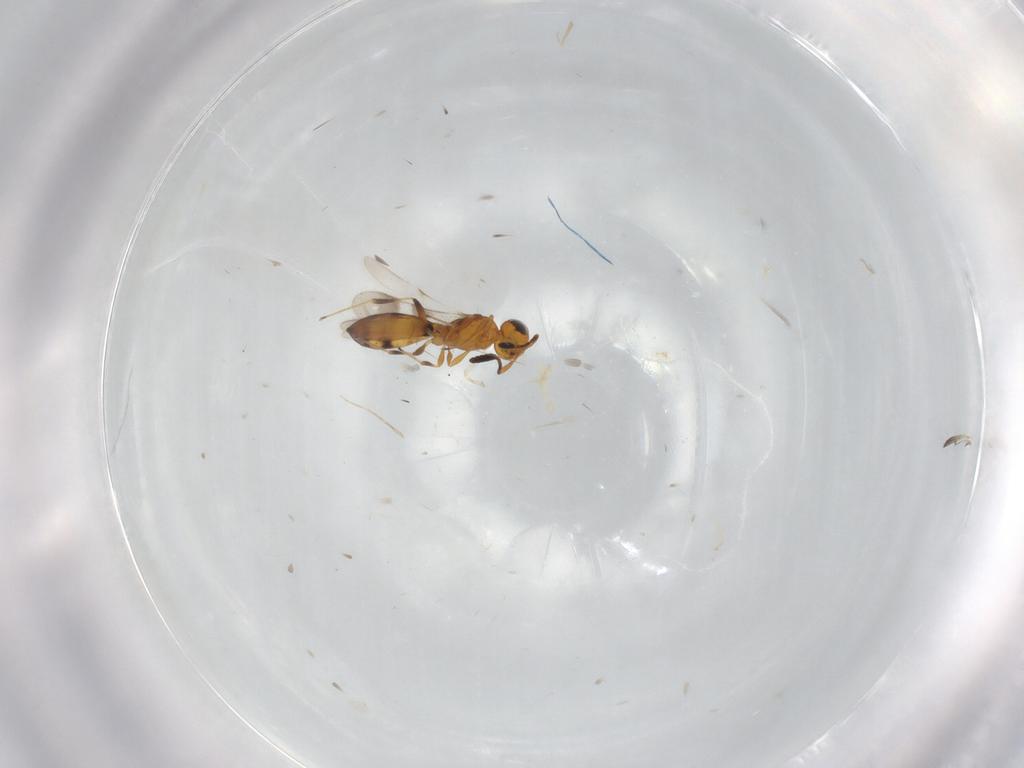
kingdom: Animalia
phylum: Arthropoda
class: Insecta
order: Hymenoptera
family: Scelionidae
